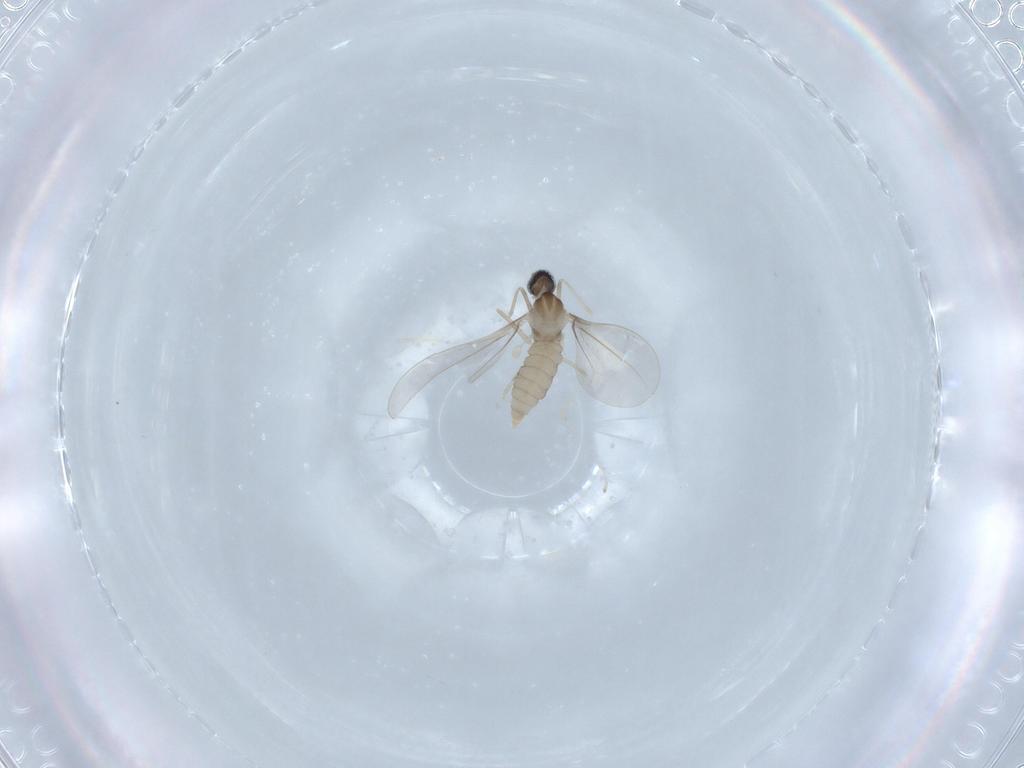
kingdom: Animalia
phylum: Arthropoda
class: Insecta
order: Diptera
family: Cecidomyiidae
